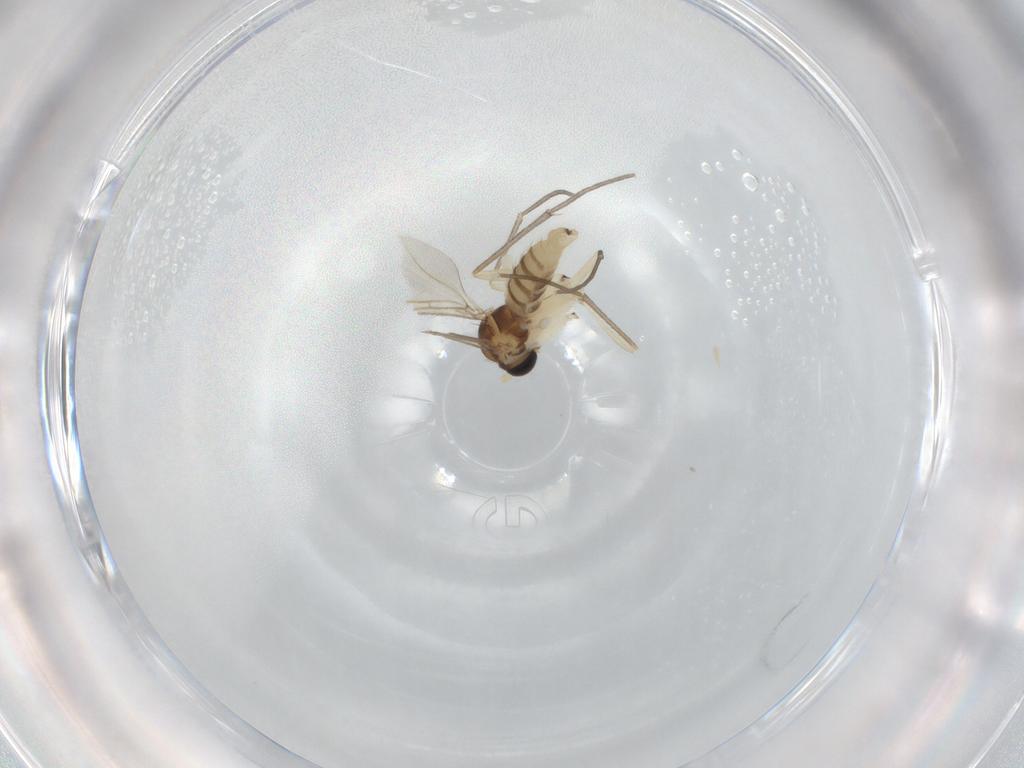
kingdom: Animalia
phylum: Arthropoda
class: Insecta
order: Diptera
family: Sciaridae
